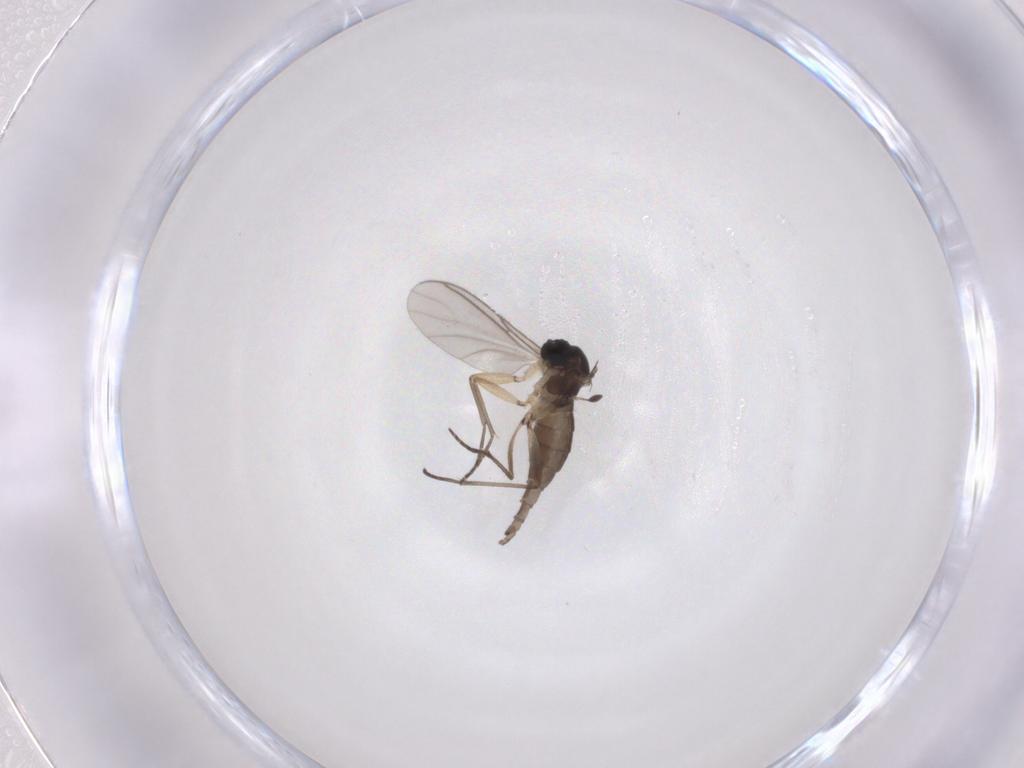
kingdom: Animalia
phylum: Arthropoda
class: Insecta
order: Diptera
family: Sciaridae
